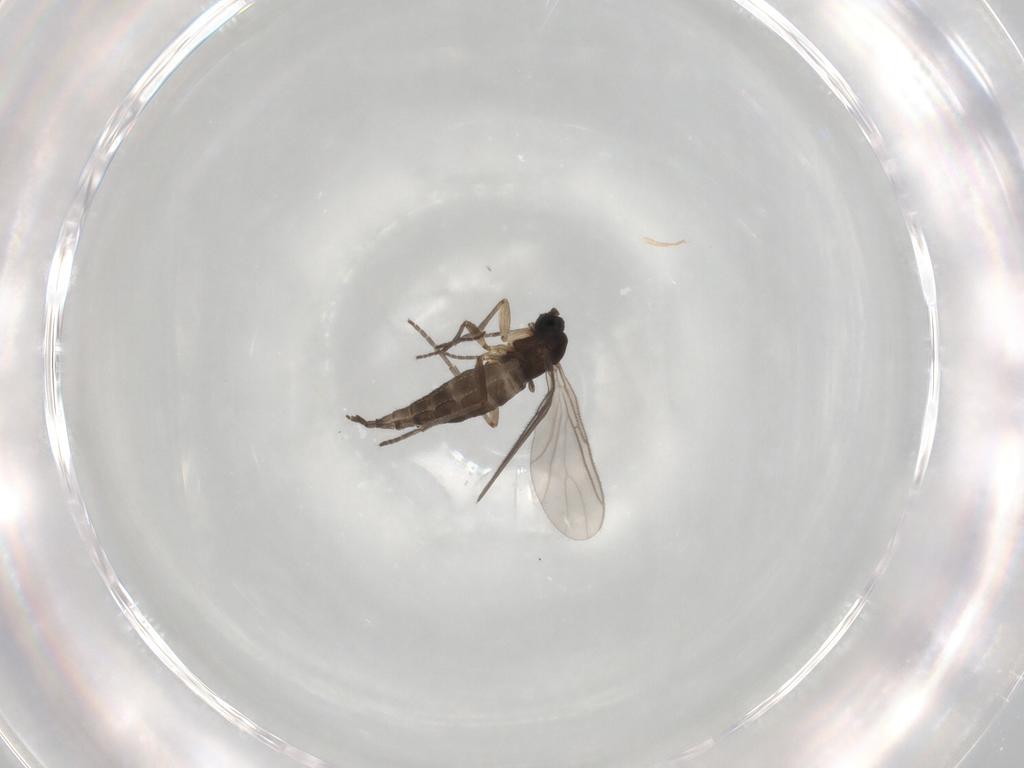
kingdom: Animalia
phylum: Arthropoda
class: Insecta
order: Diptera
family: Sciaridae
